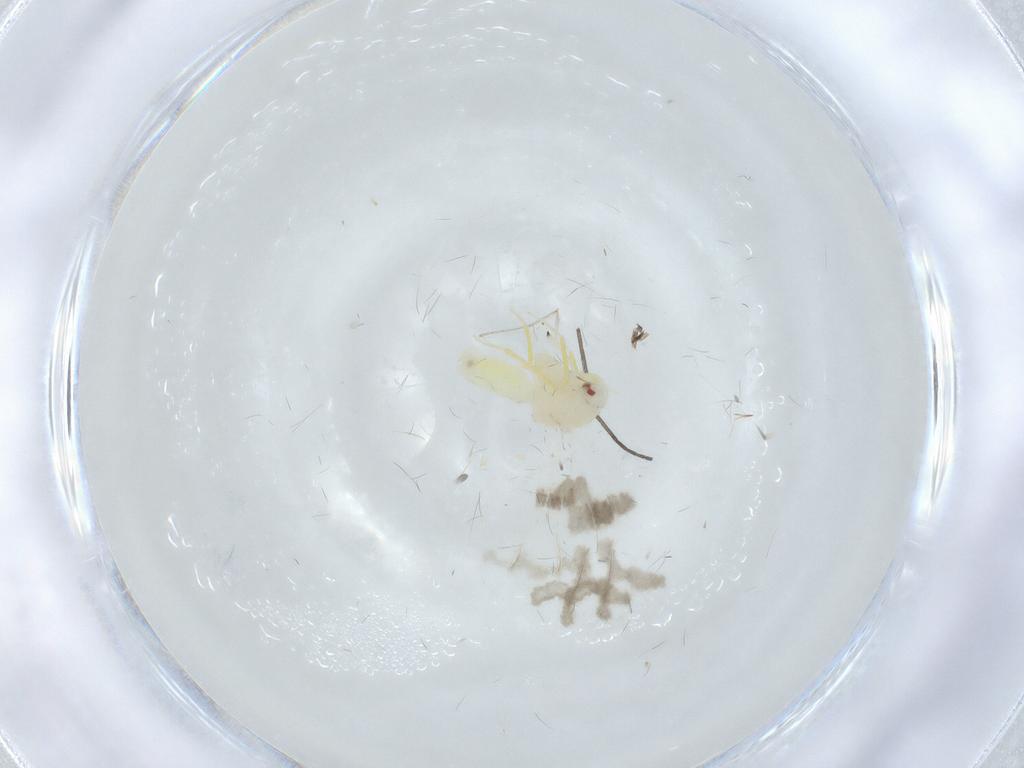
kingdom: Animalia
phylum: Arthropoda
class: Insecta
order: Hemiptera
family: Aleyrodidae
